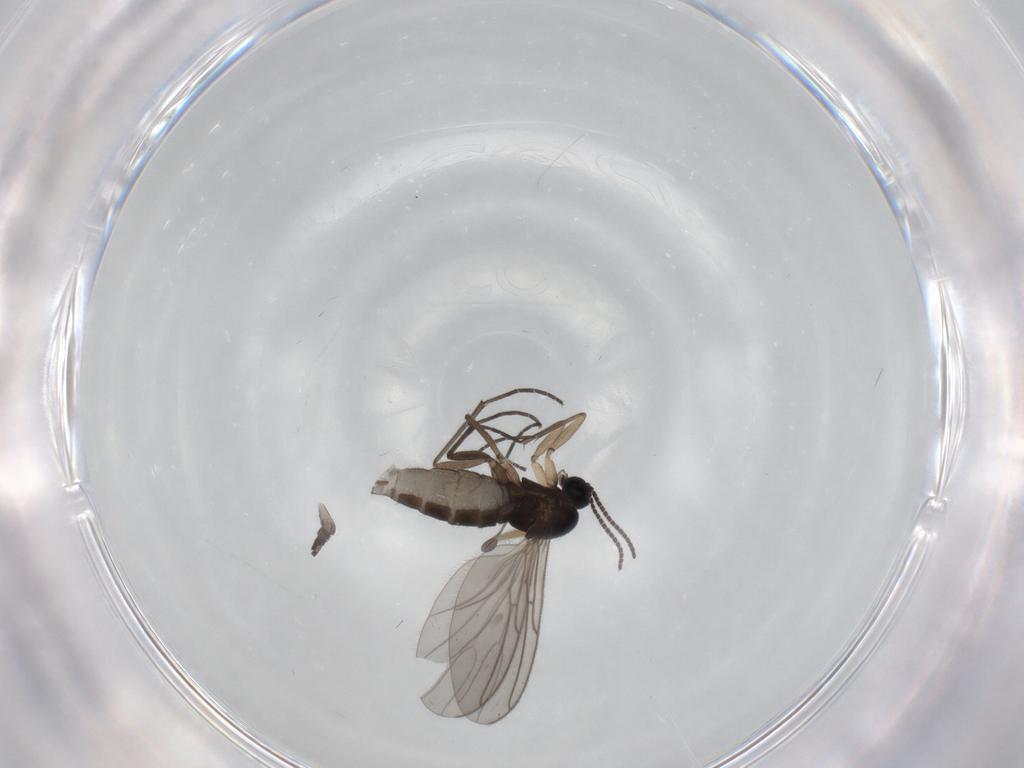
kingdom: Animalia
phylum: Arthropoda
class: Insecta
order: Diptera
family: Sciaridae
